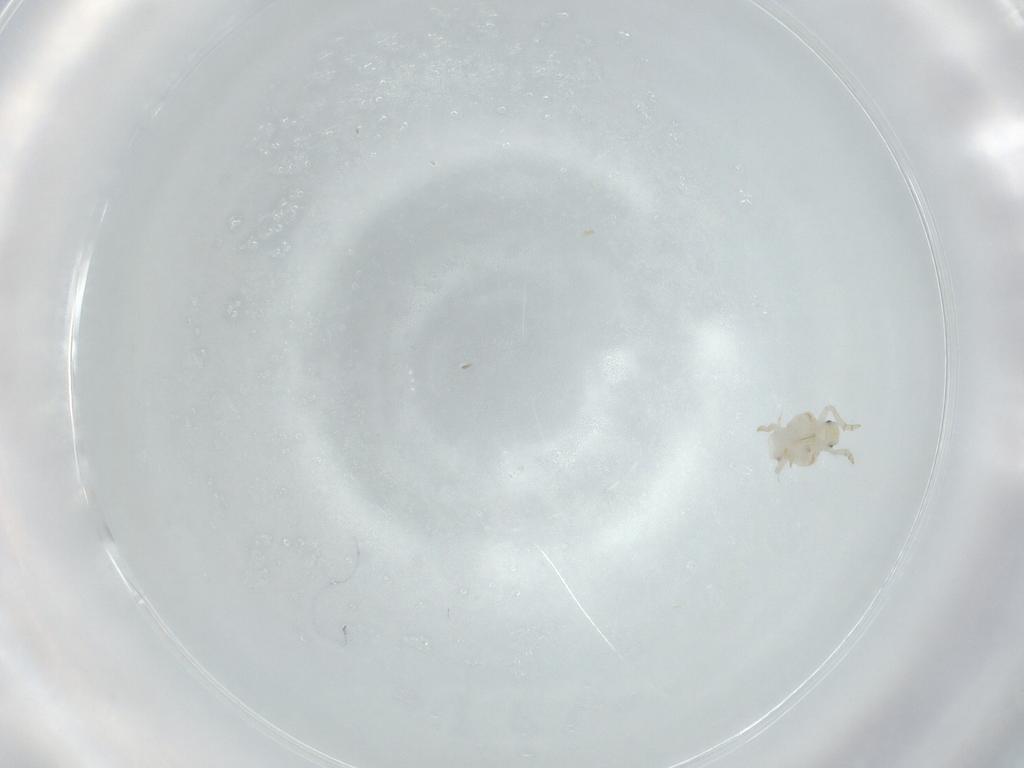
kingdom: Animalia
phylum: Arthropoda
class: Insecta
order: Hemiptera
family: Flatidae
